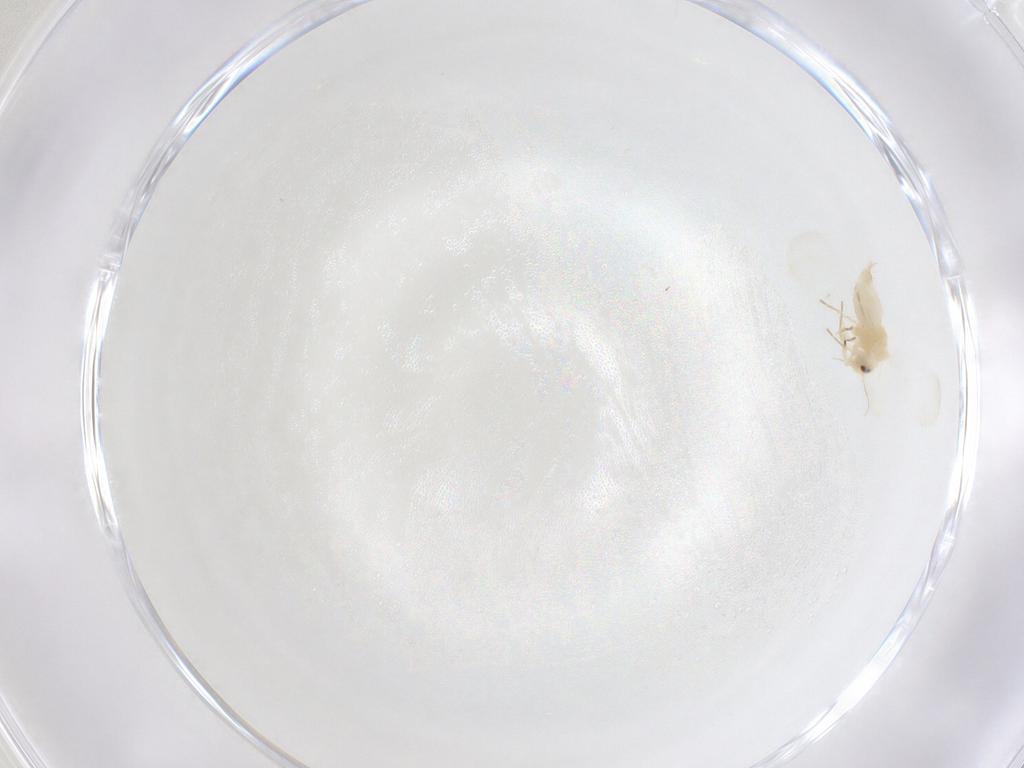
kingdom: Animalia
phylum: Arthropoda
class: Insecta
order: Hemiptera
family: Aleyrodidae
